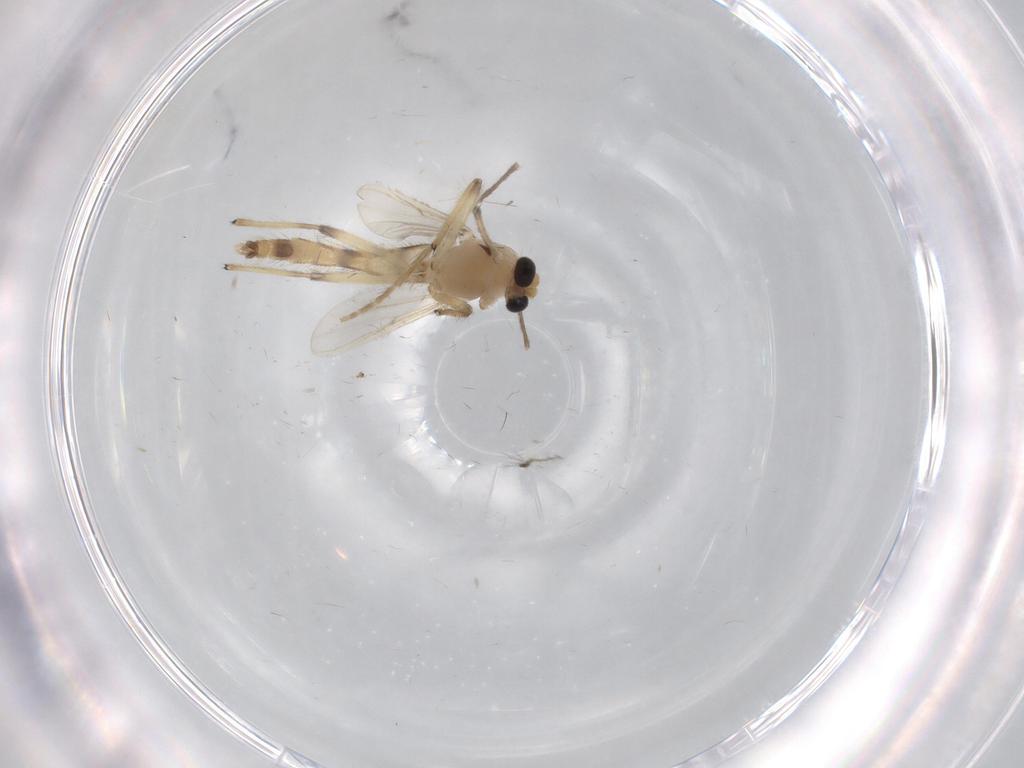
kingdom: Animalia
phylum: Arthropoda
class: Insecta
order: Diptera
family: Chironomidae
